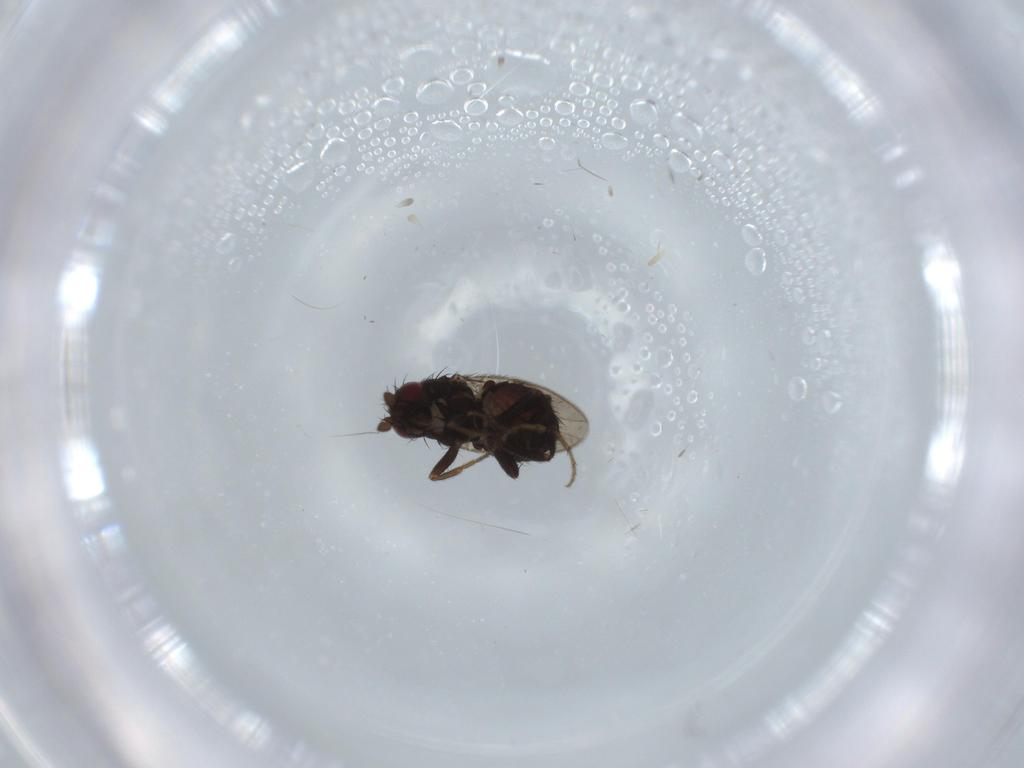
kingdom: Animalia
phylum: Arthropoda
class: Insecta
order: Diptera
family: Sphaeroceridae
